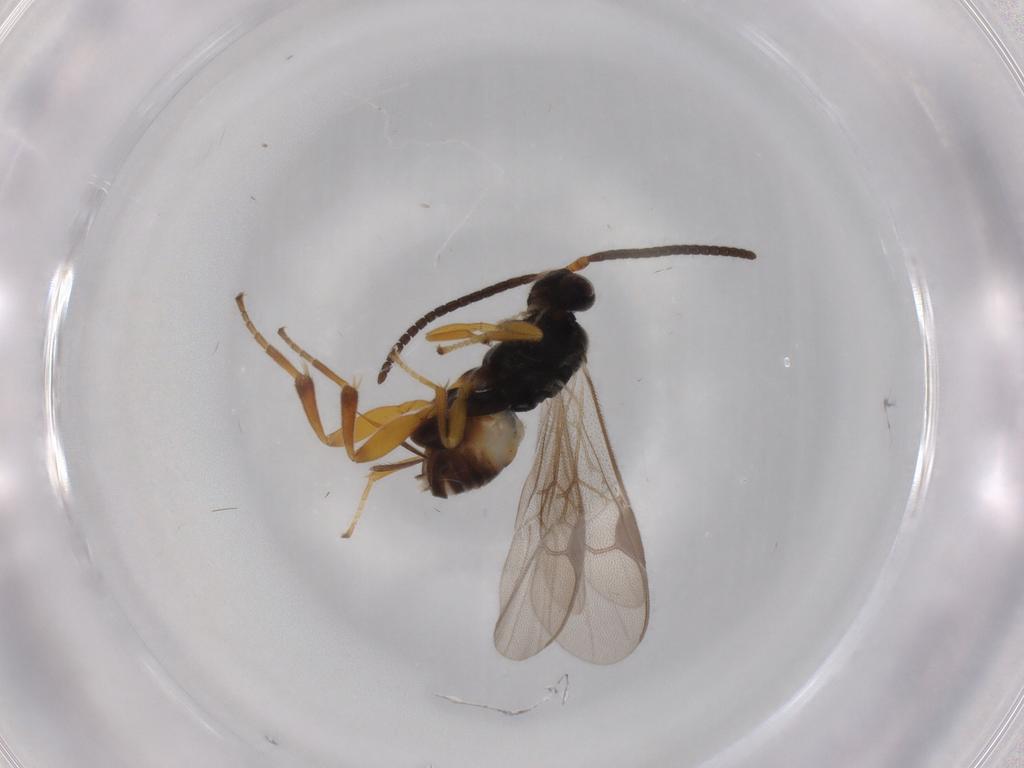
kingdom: Animalia
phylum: Arthropoda
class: Insecta
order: Hymenoptera
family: Braconidae
